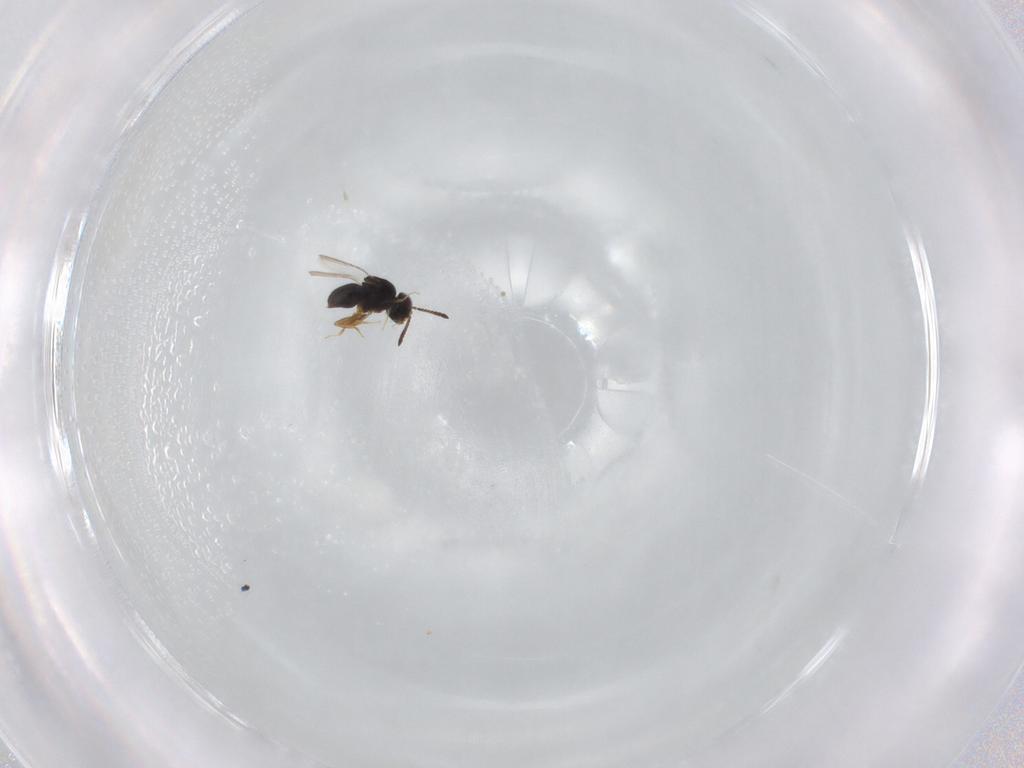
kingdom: Animalia
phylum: Arthropoda
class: Insecta
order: Hymenoptera
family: Ceraphronidae
